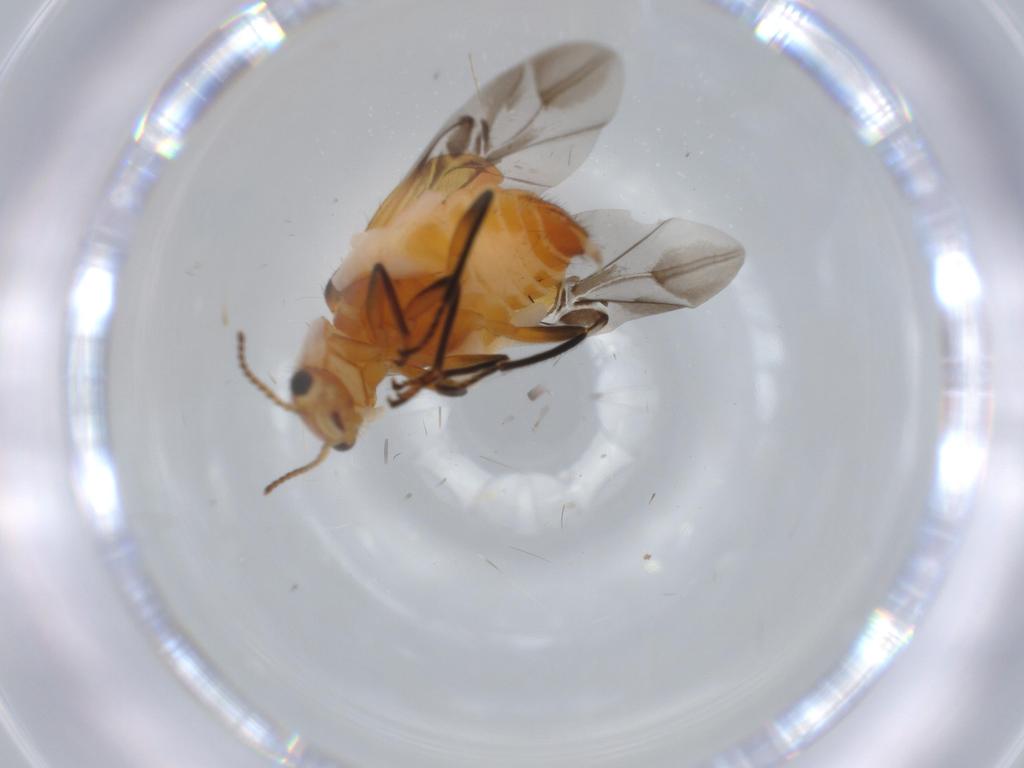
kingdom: Animalia
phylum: Arthropoda
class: Insecta
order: Coleoptera
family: Melyridae
